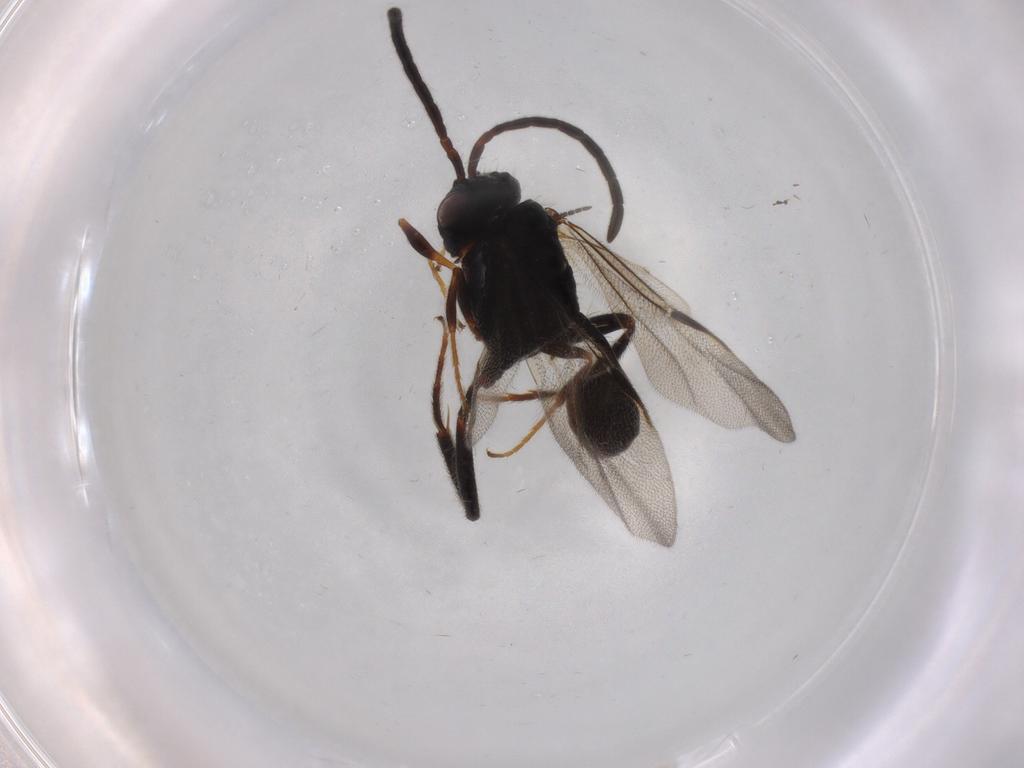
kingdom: Animalia
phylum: Arthropoda
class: Insecta
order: Hymenoptera
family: Evaniidae
